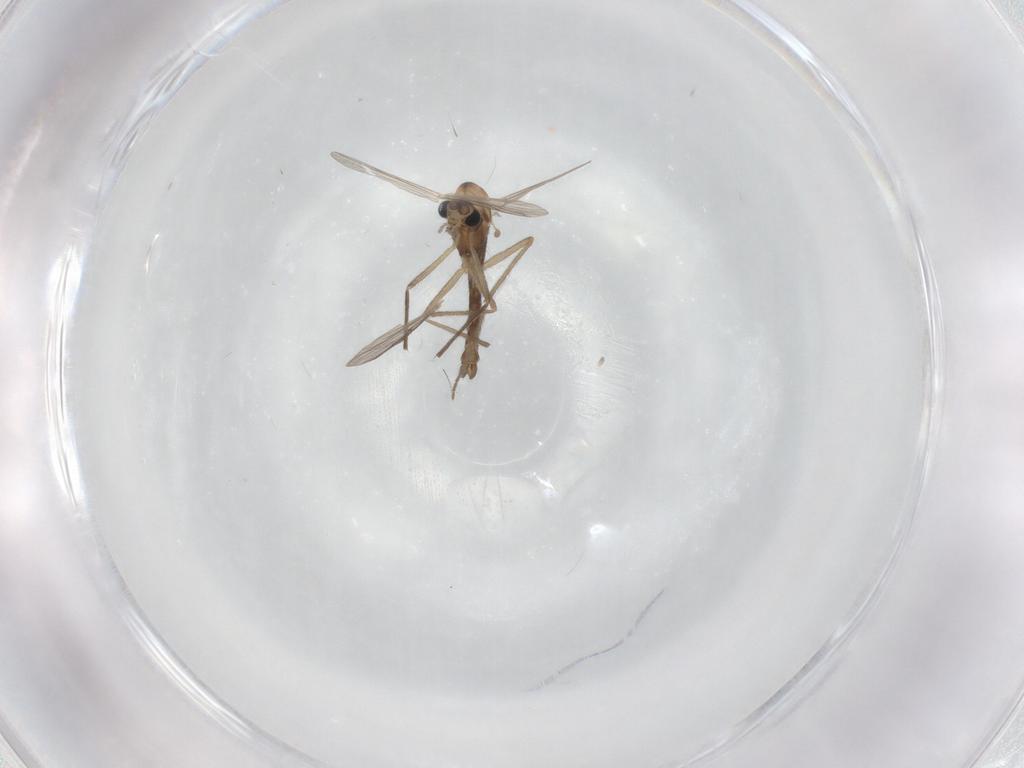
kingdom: Animalia
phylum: Arthropoda
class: Insecta
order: Diptera
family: Chironomidae
